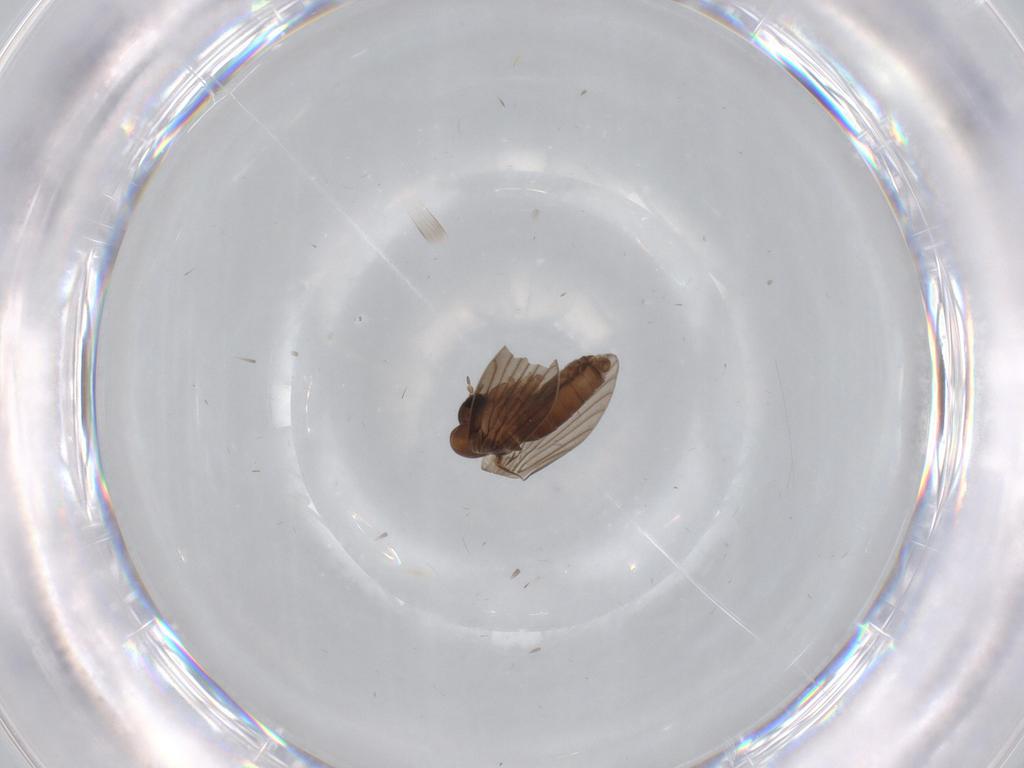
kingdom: Animalia
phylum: Arthropoda
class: Insecta
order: Diptera
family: Psychodidae
